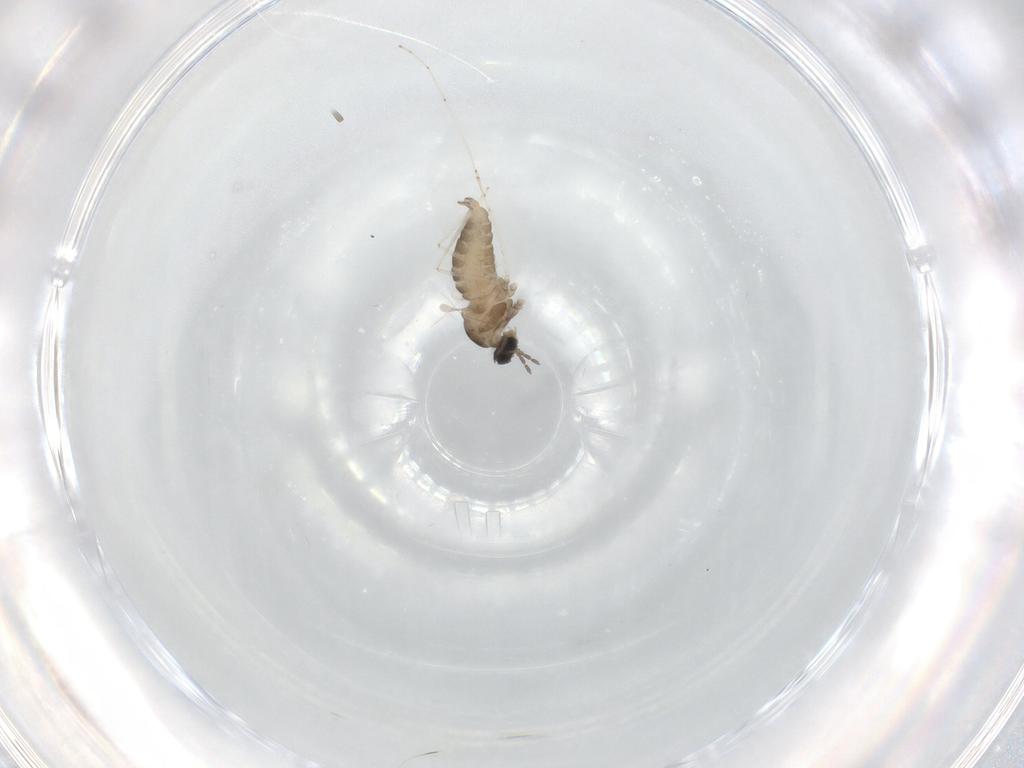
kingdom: Animalia
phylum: Arthropoda
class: Insecta
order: Diptera
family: Cecidomyiidae
